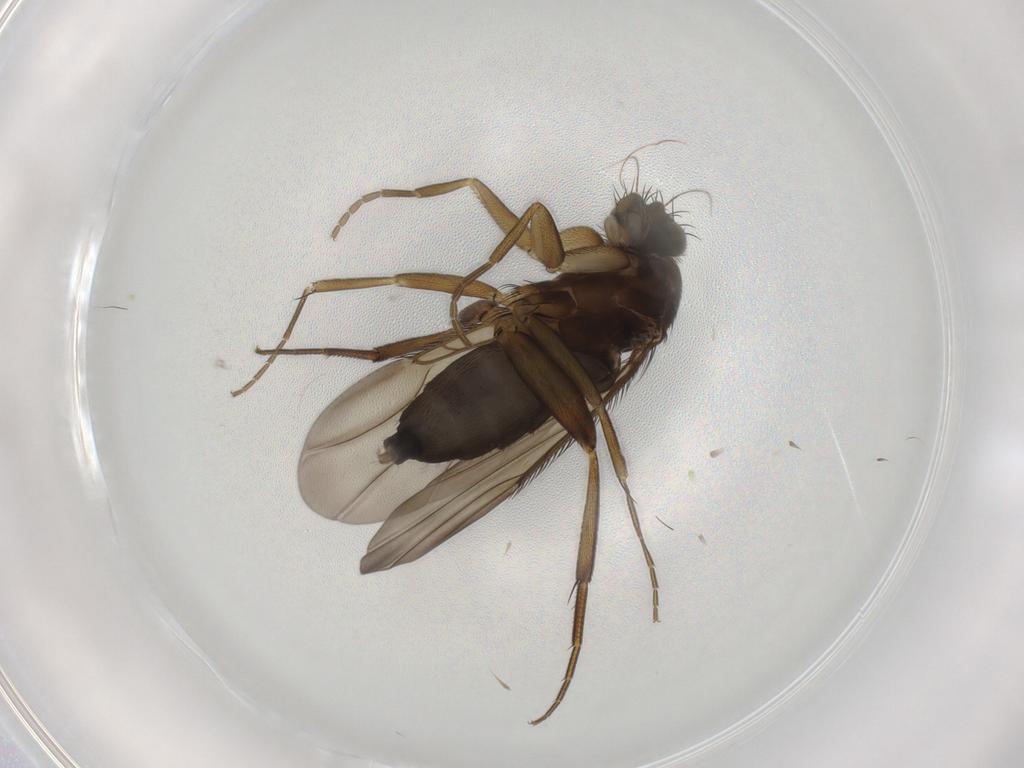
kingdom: Animalia
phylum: Arthropoda
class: Insecta
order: Diptera
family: Phoridae
